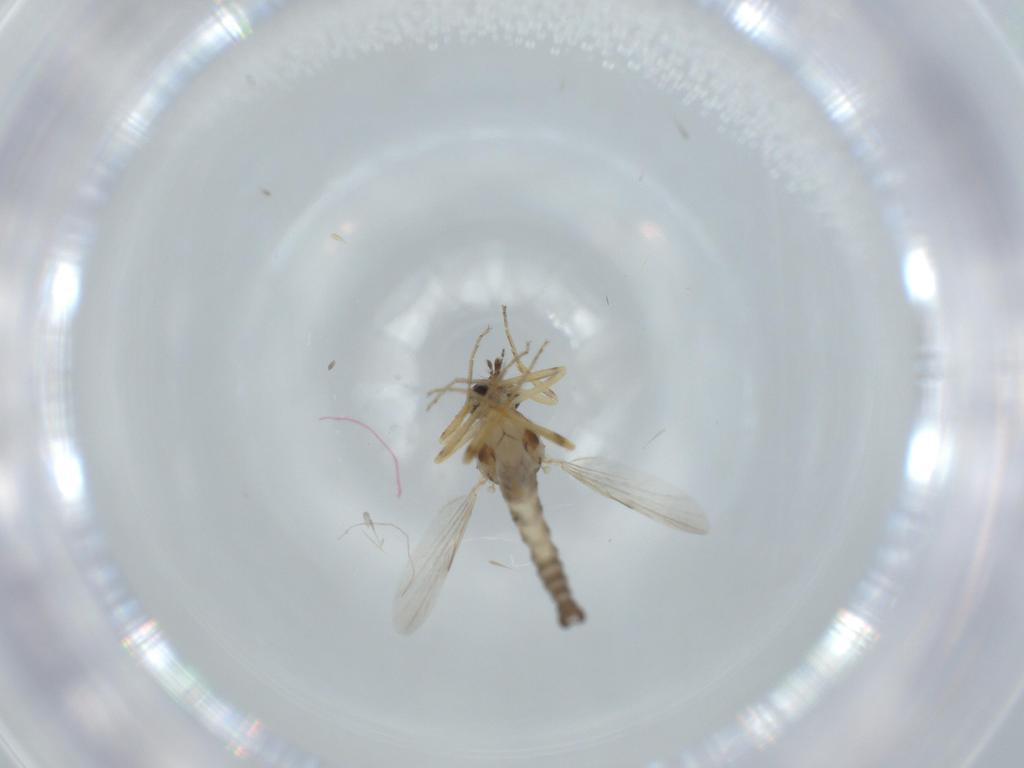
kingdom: Animalia
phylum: Arthropoda
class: Insecta
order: Diptera
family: Ceratopogonidae
